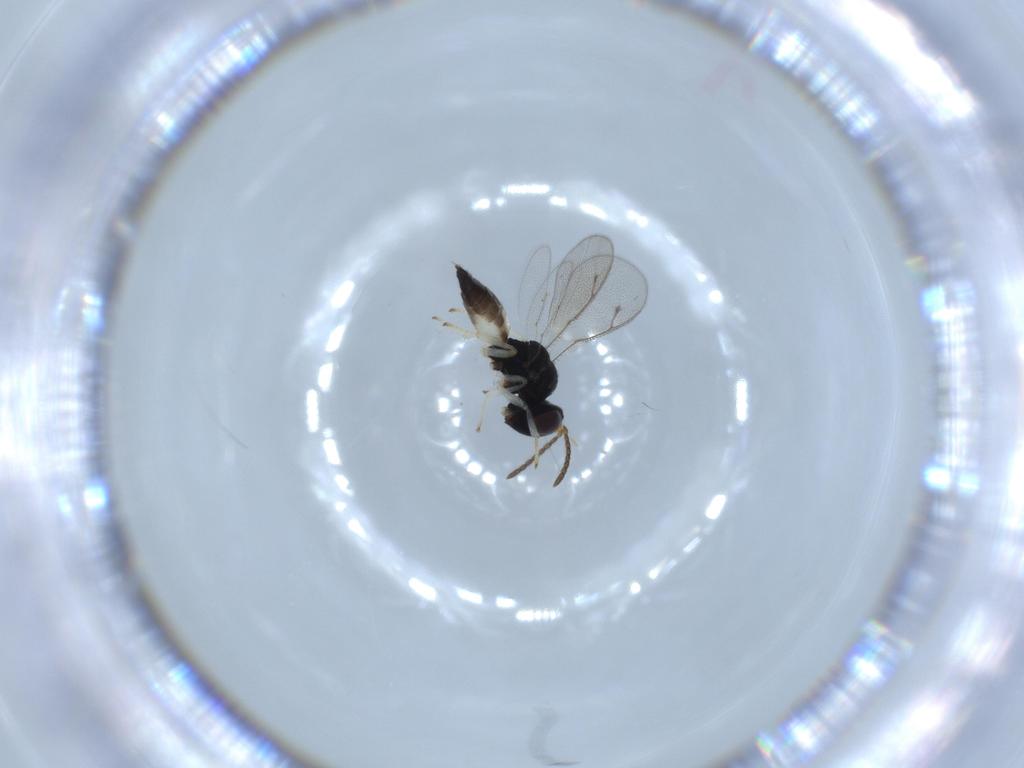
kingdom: Animalia
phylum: Arthropoda
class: Insecta
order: Hymenoptera
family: Pteromalidae
